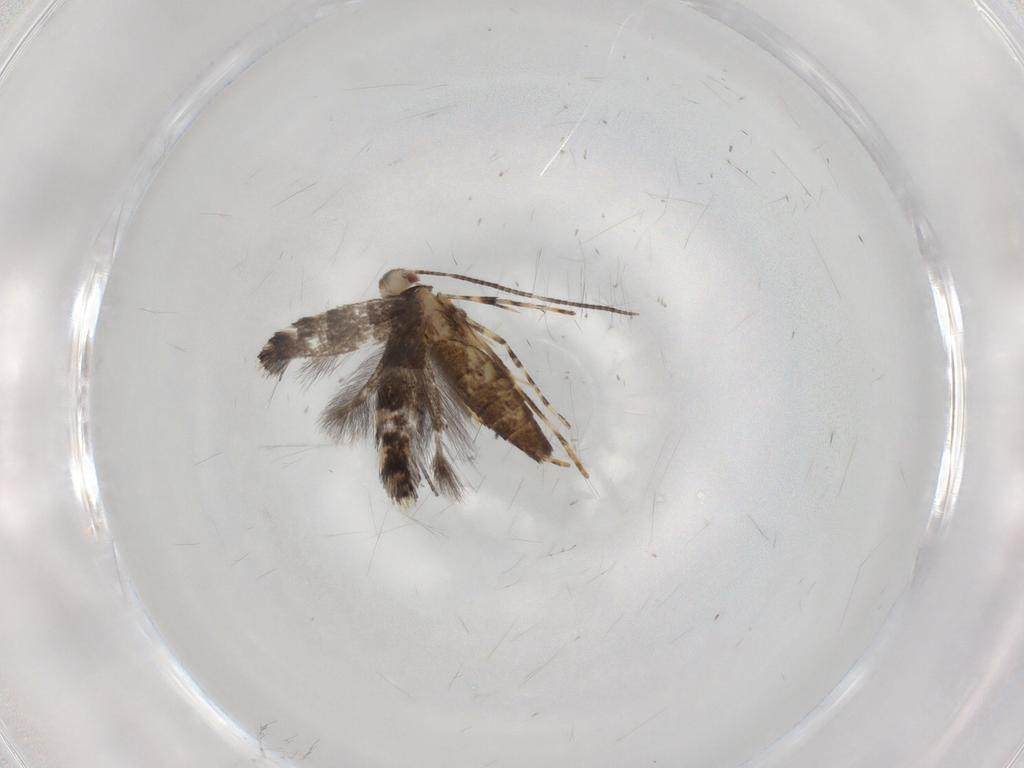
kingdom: Animalia
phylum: Arthropoda
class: Insecta
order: Lepidoptera
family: Gracillariidae
